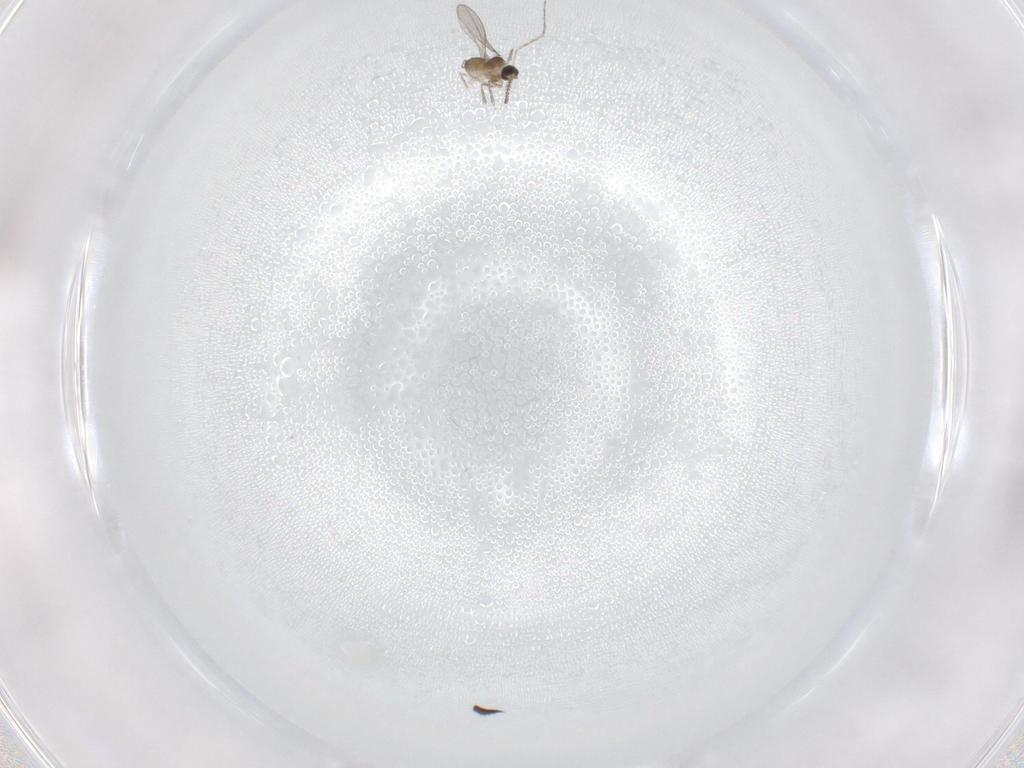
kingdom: Animalia
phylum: Arthropoda
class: Insecta
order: Diptera
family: Cecidomyiidae
